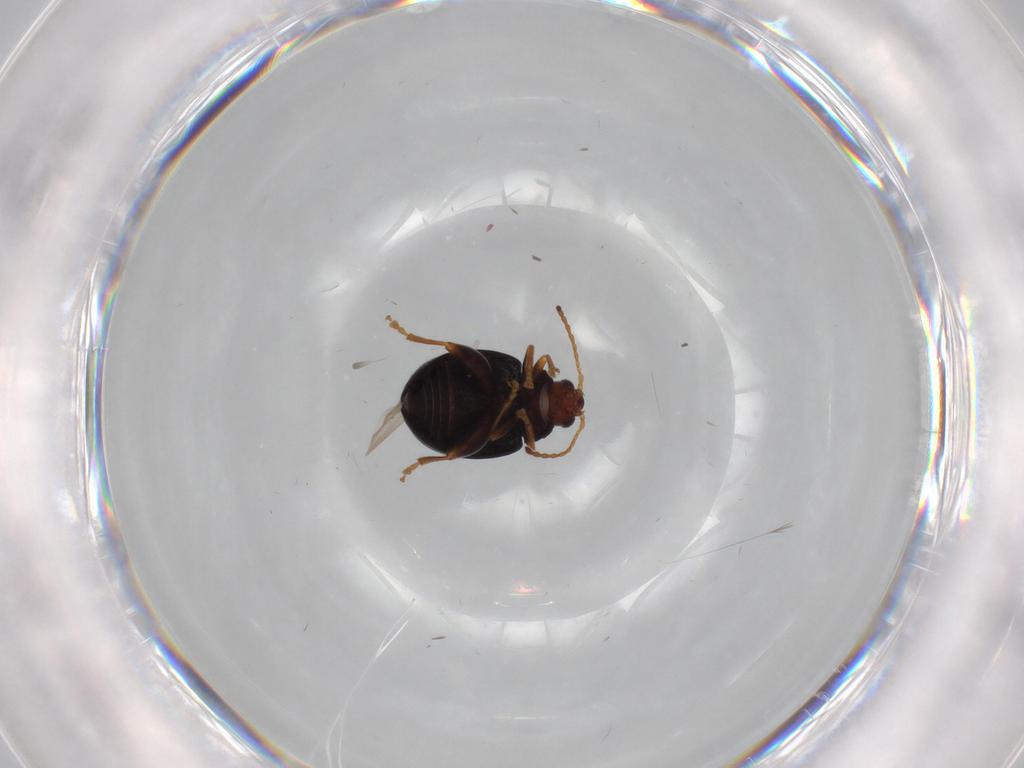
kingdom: Animalia
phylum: Arthropoda
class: Insecta
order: Coleoptera
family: Chrysomelidae
